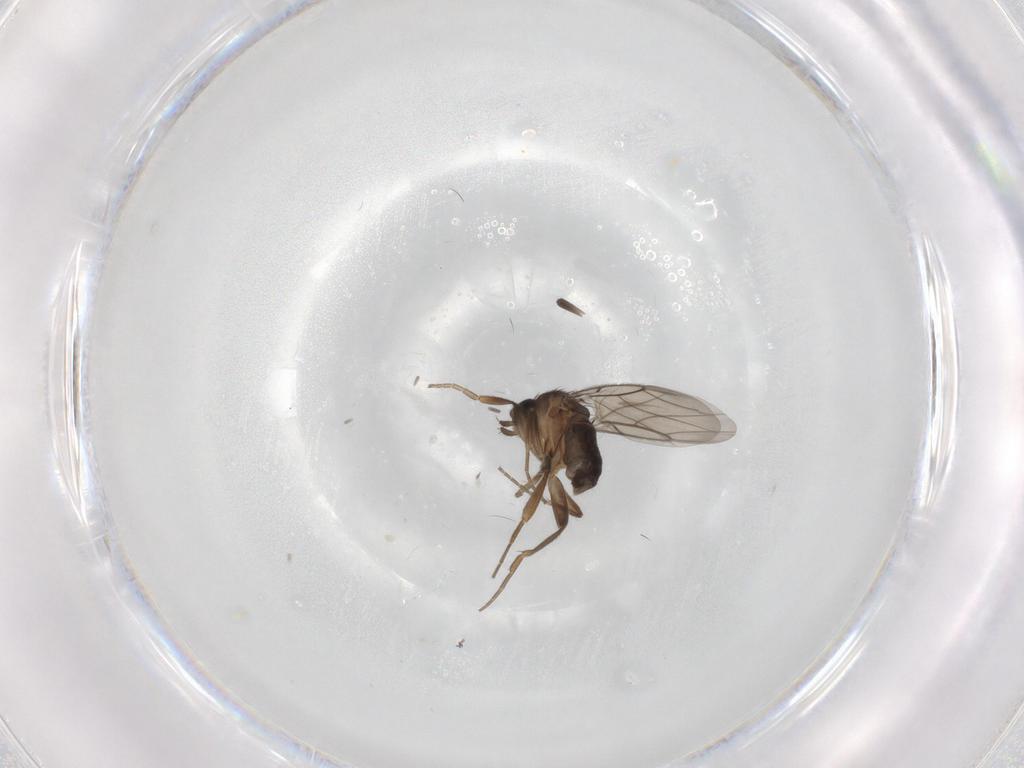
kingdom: Animalia
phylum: Arthropoda
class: Insecta
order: Diptera
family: Phoridae
